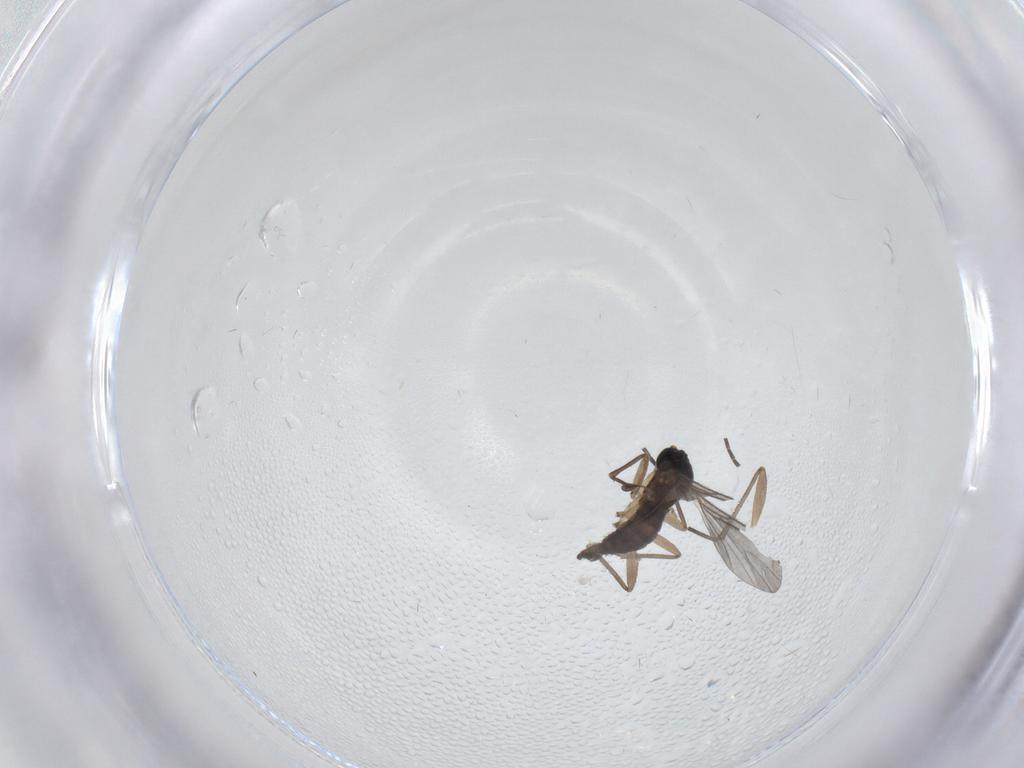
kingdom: Animalia
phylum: Arthropoda
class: Insecta
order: Diptera
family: Sciaridae
